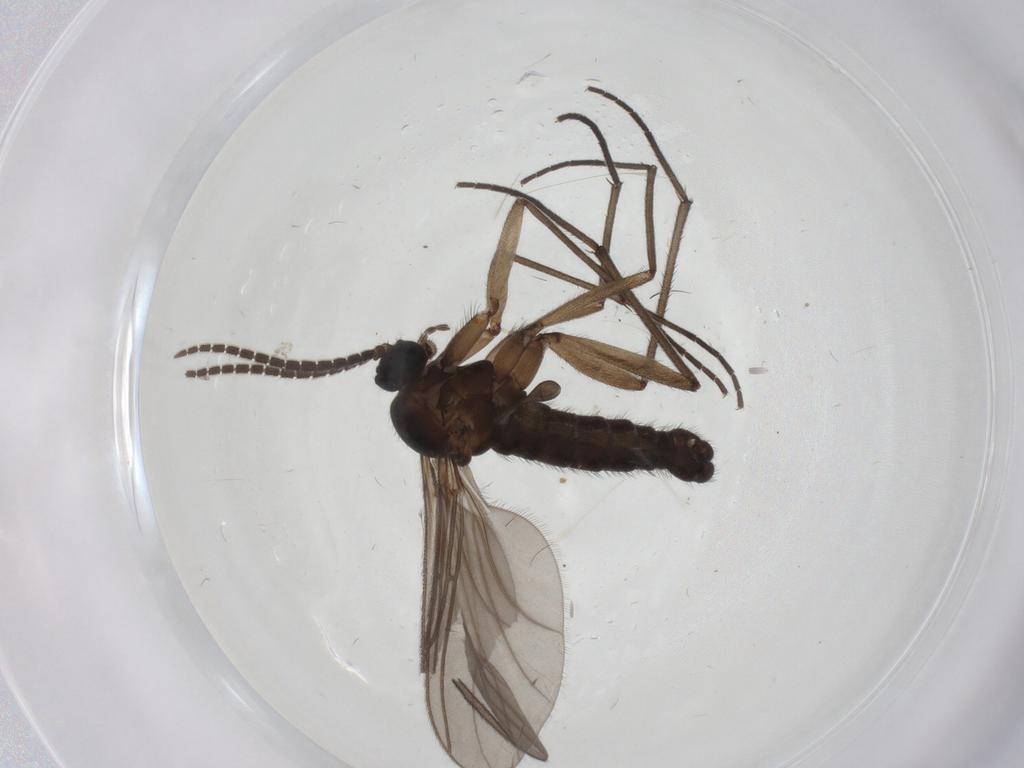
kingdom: Animalia
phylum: Arthropoda
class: Insecta
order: Diptera
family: Sciaridae
